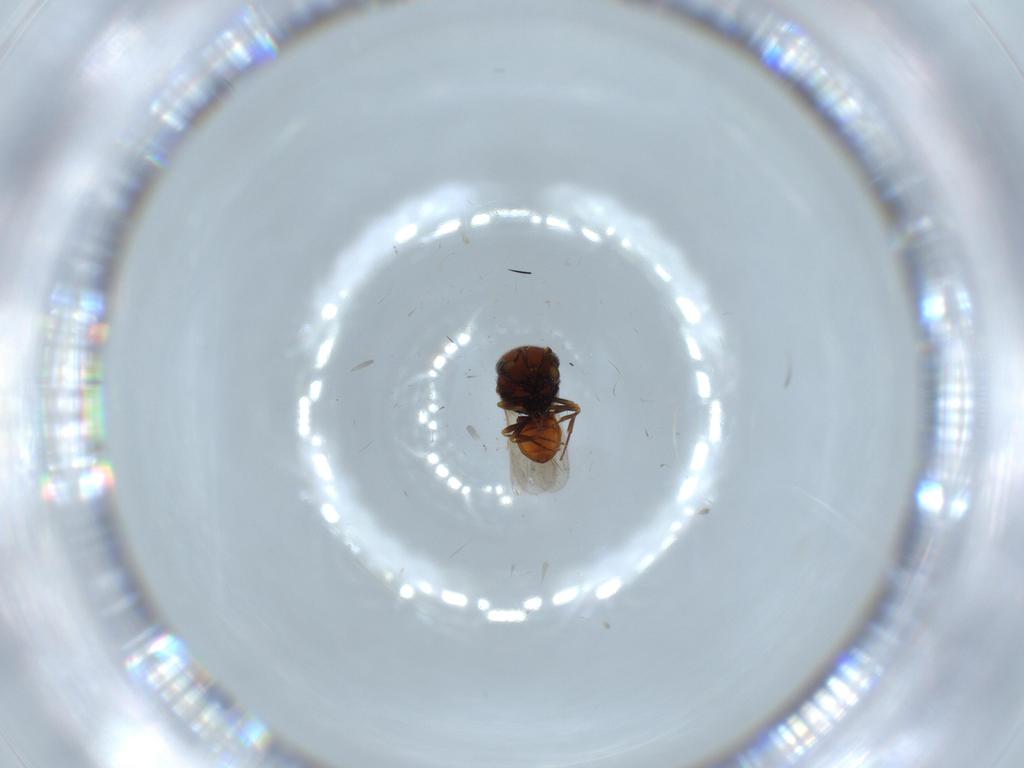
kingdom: Animalia
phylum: Arthropoda
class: Insecta
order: Hymenoptera
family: Scelionidae
